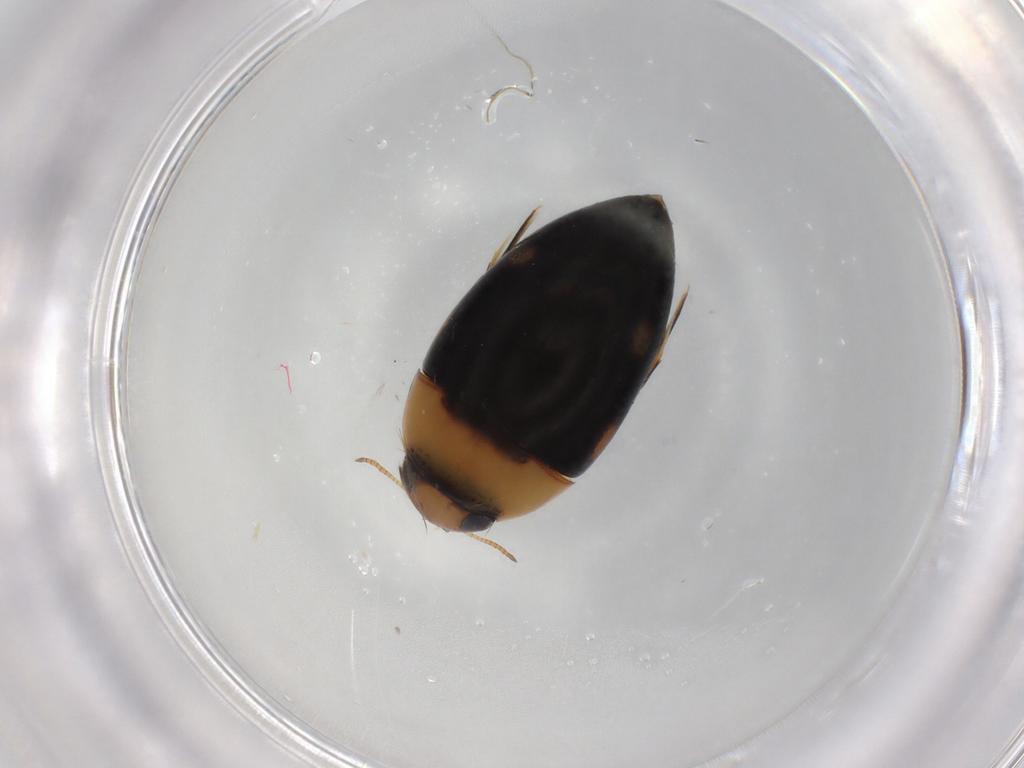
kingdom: Animalia
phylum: Arthropoda
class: Insecta
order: Coleoptera
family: Noteridae
